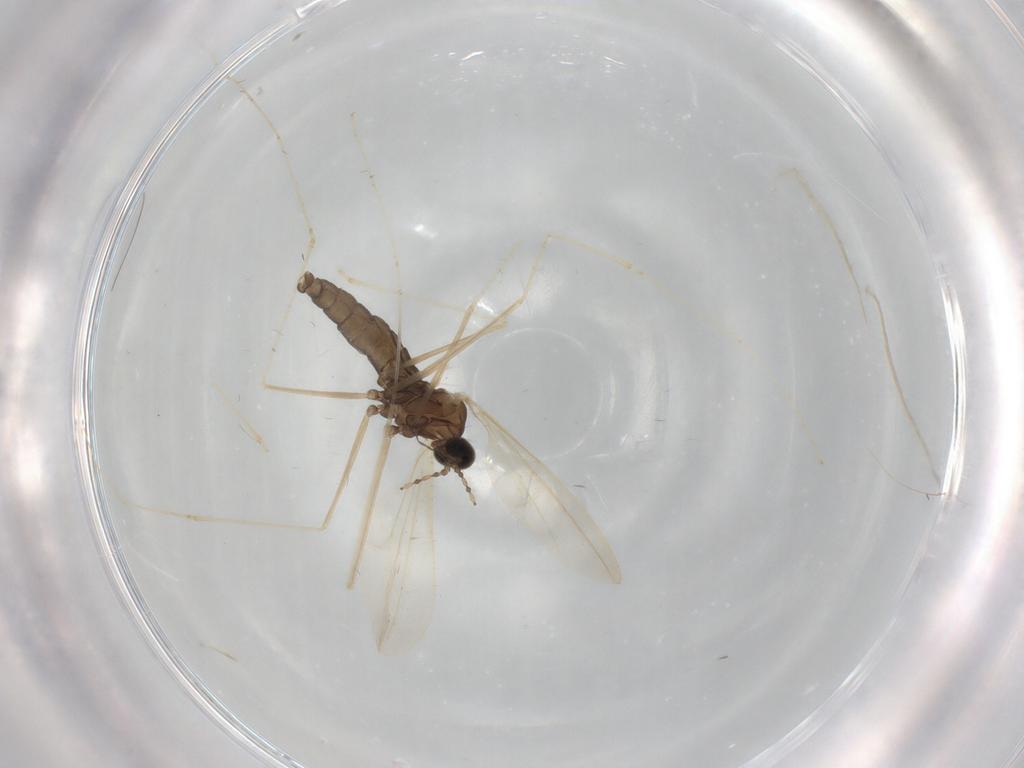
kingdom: Animalia
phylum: Arthropoda
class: Insecta
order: Diptera
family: Cecidomyiidae
